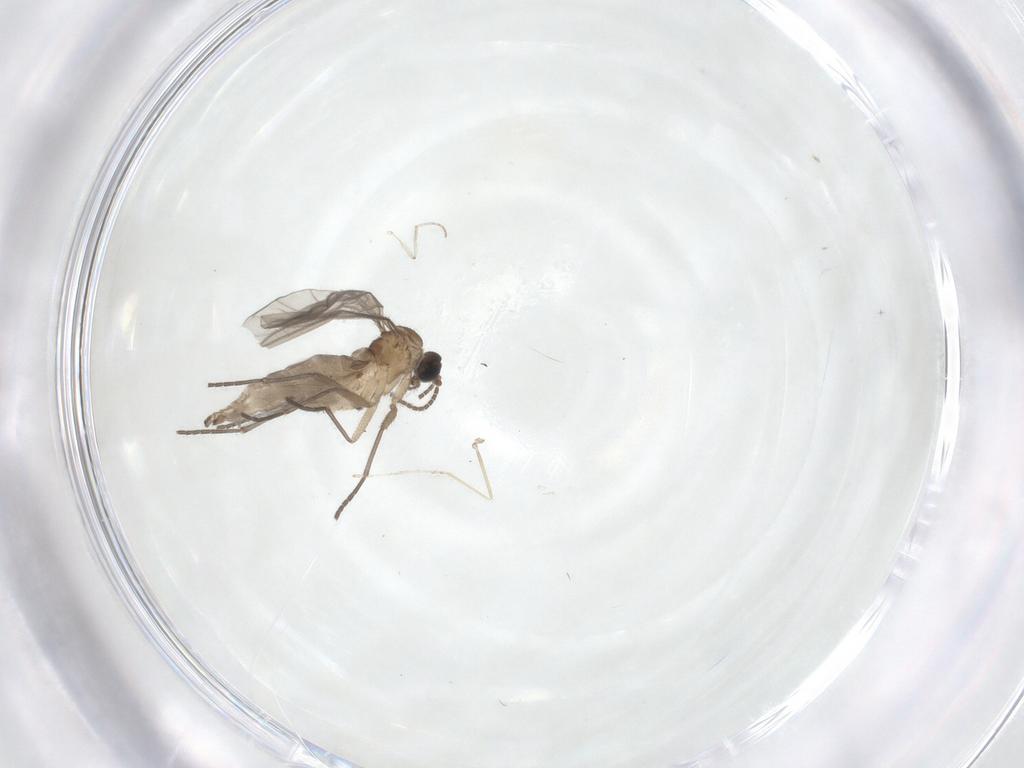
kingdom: Animalia
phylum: Arthropoda
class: Insecta
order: Diptera
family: Sciaridae
